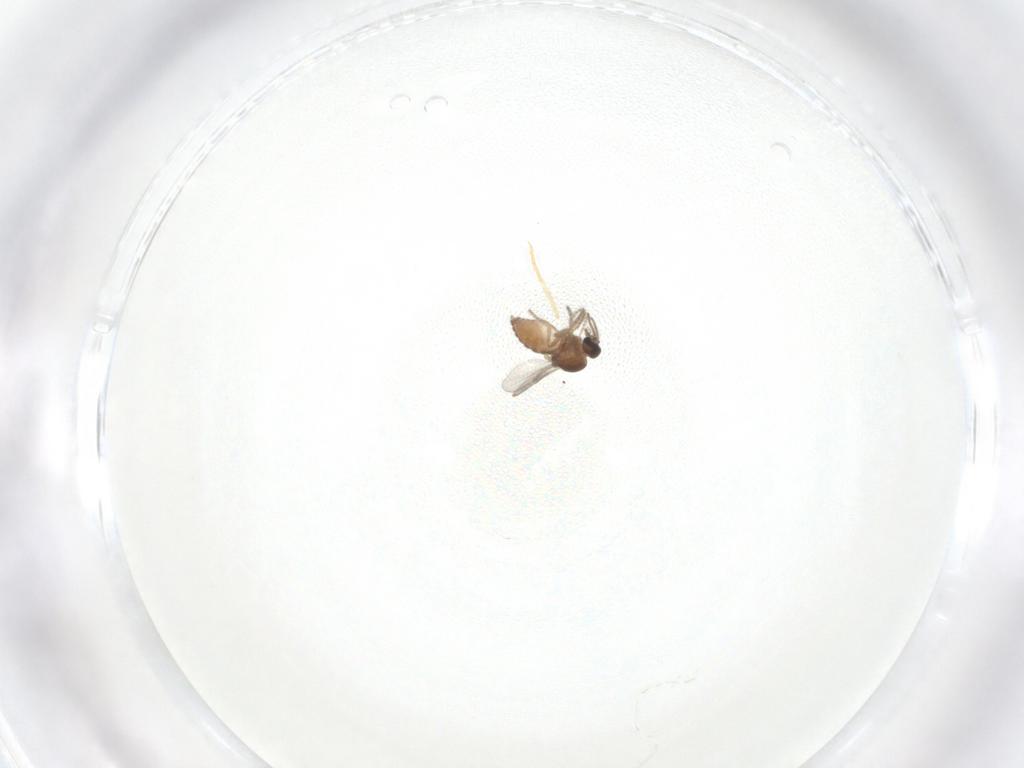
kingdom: Animalia
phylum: Arthropoda
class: Insecta
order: Diptera
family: Ceratopogonidae
